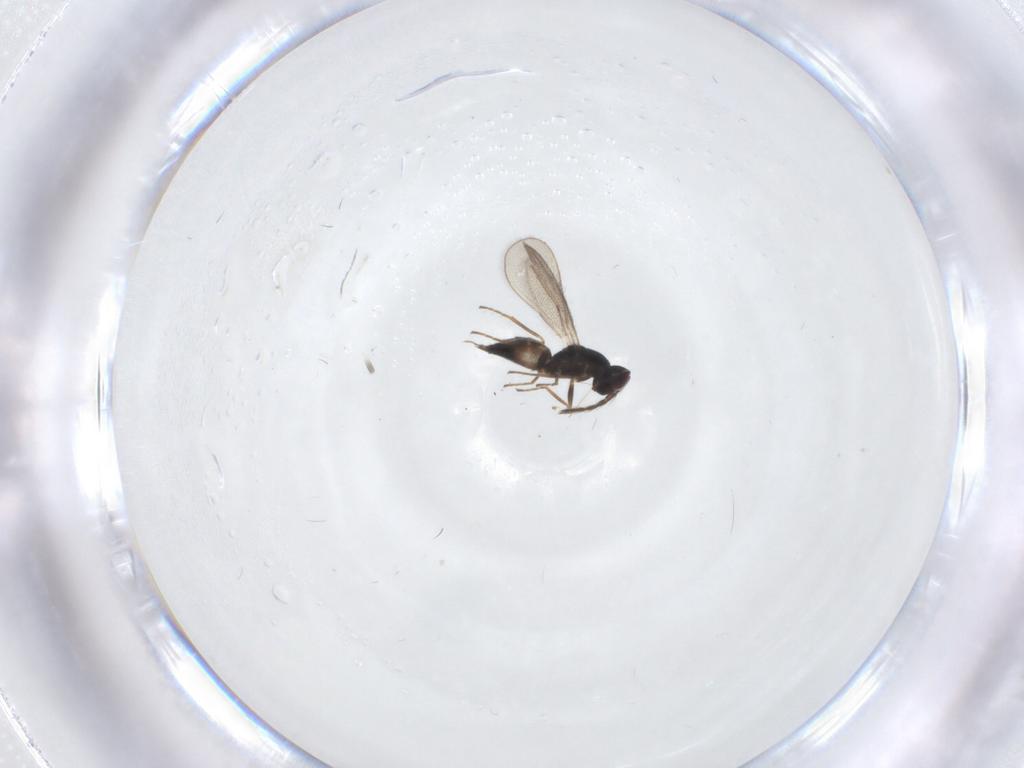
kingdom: Animalia
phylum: Arthropoda
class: Insecta
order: Hymenoptera
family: Eulophidae
